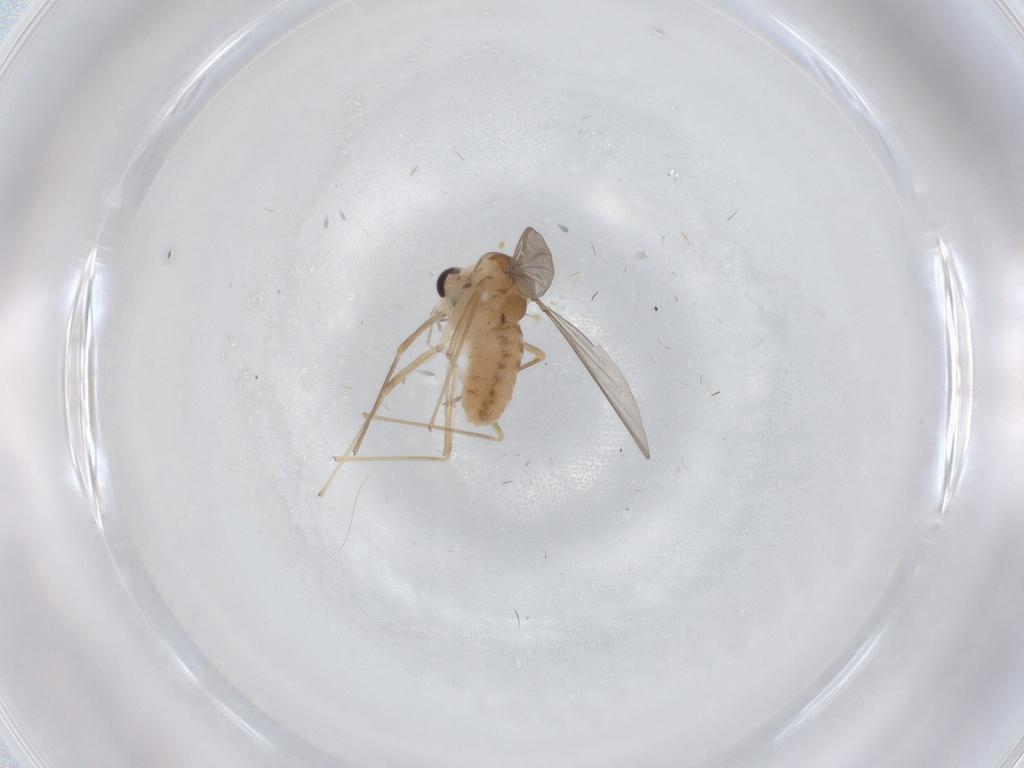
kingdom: Animalia
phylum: Arthropoda
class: Insecta
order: Diptera
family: Chironomidae
